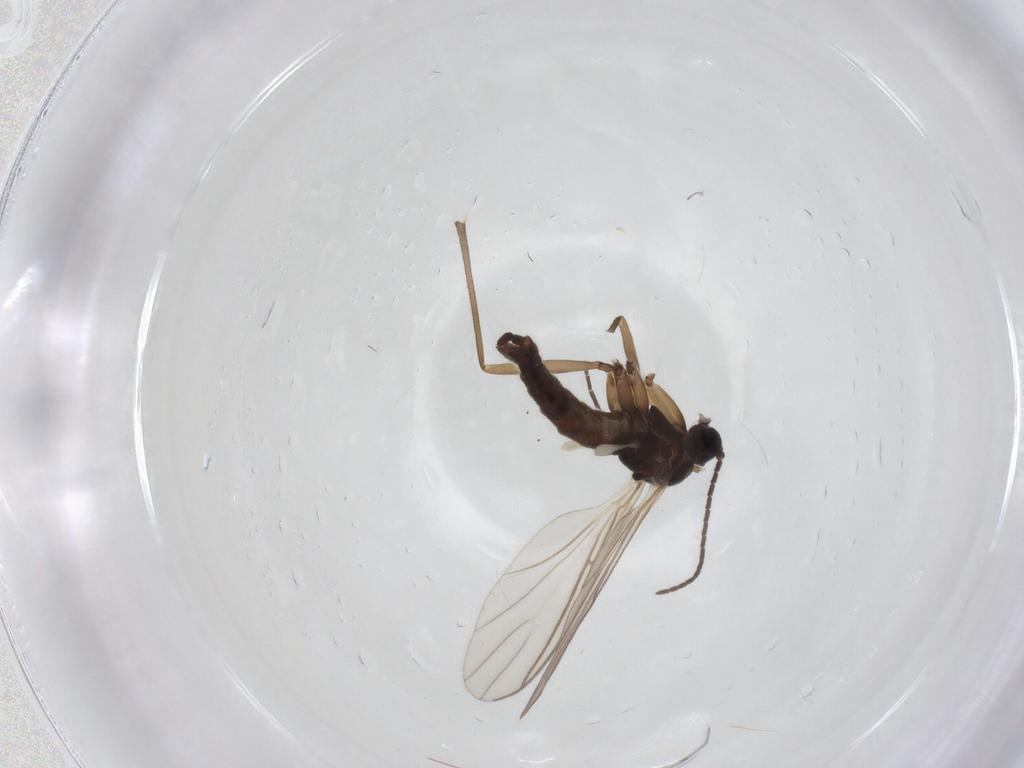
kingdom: Animalia
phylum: Arthropoda
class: Insecta
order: Diptera
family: Sciaridae
